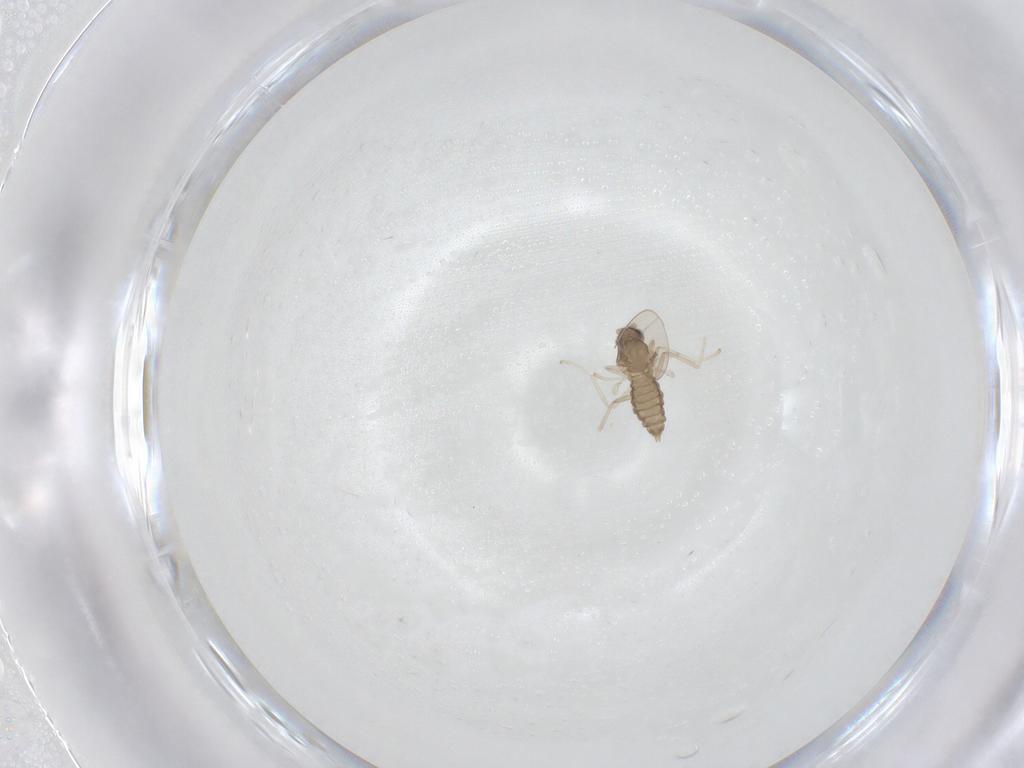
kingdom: Animalia
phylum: Arthropoda
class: Insecta
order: Diptera
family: Cecidomyiidae
